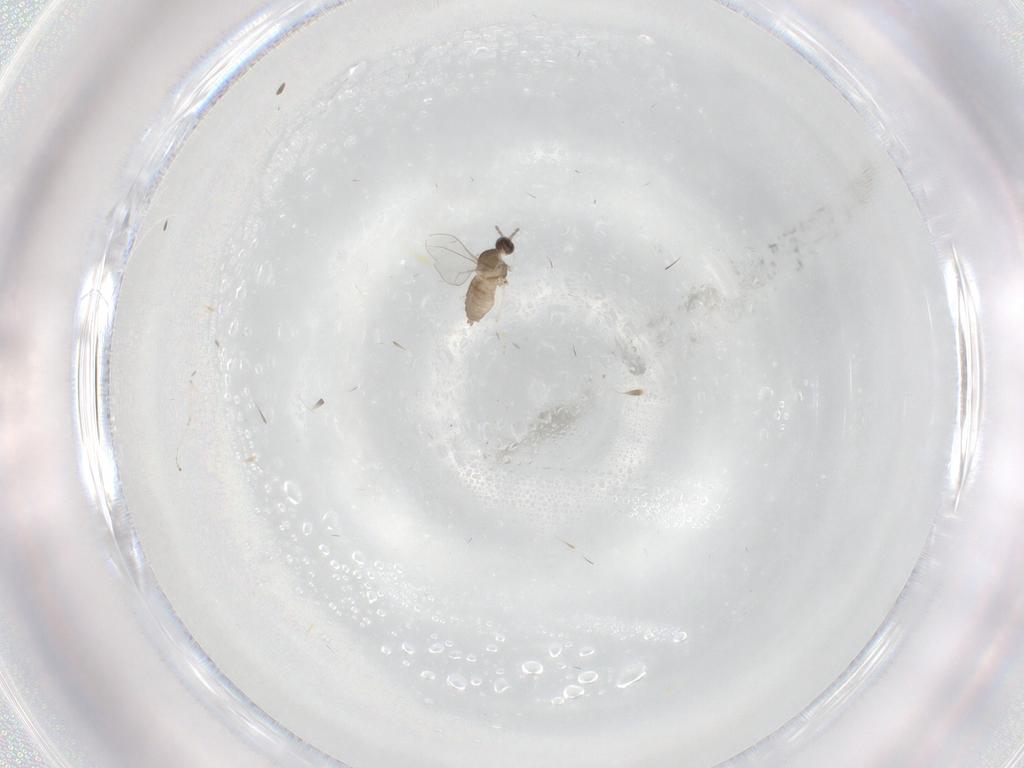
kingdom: Animalia
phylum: Arthropoda
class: Insecta
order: Diptera
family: Cecidomyiidae
